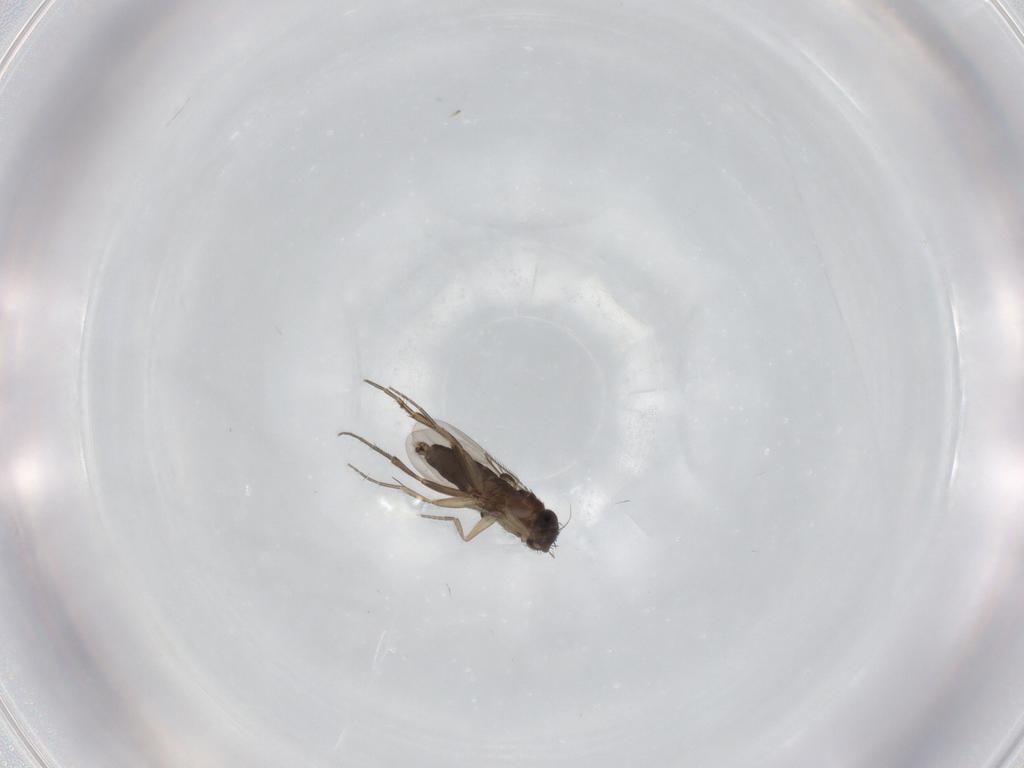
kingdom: Animalia
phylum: Arthropoda
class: Insecta
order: Diptera
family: Phoridae
